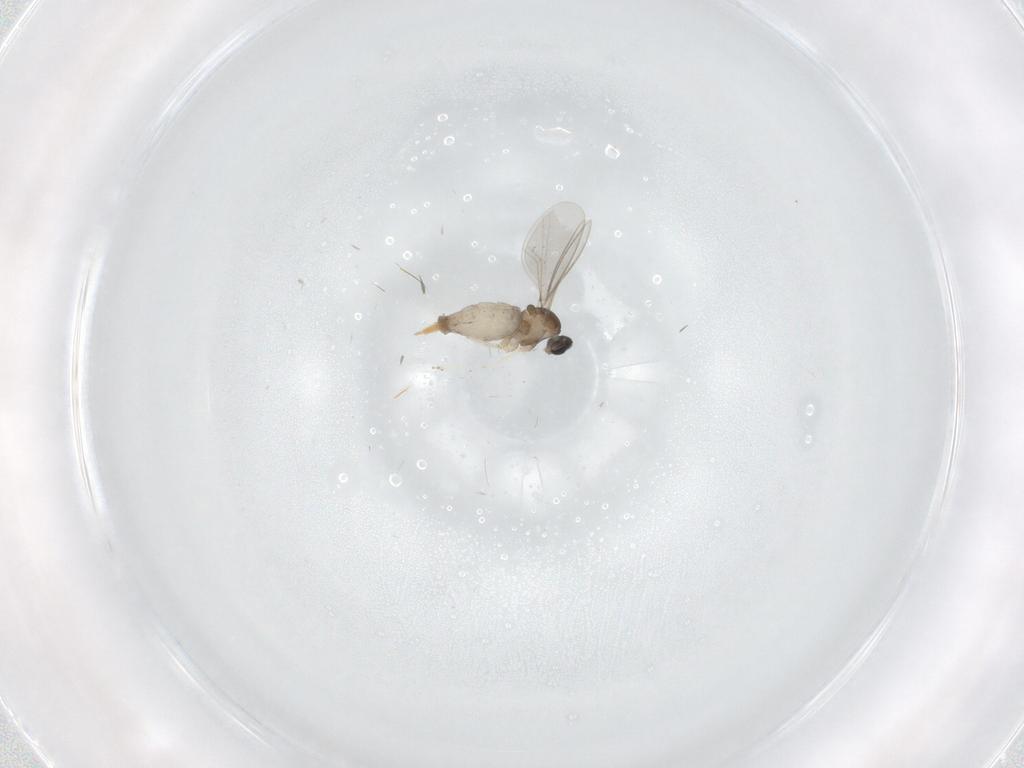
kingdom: Animalia
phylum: Arthropoda
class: Insecta
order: Diptera
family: Cecidomyiidae
